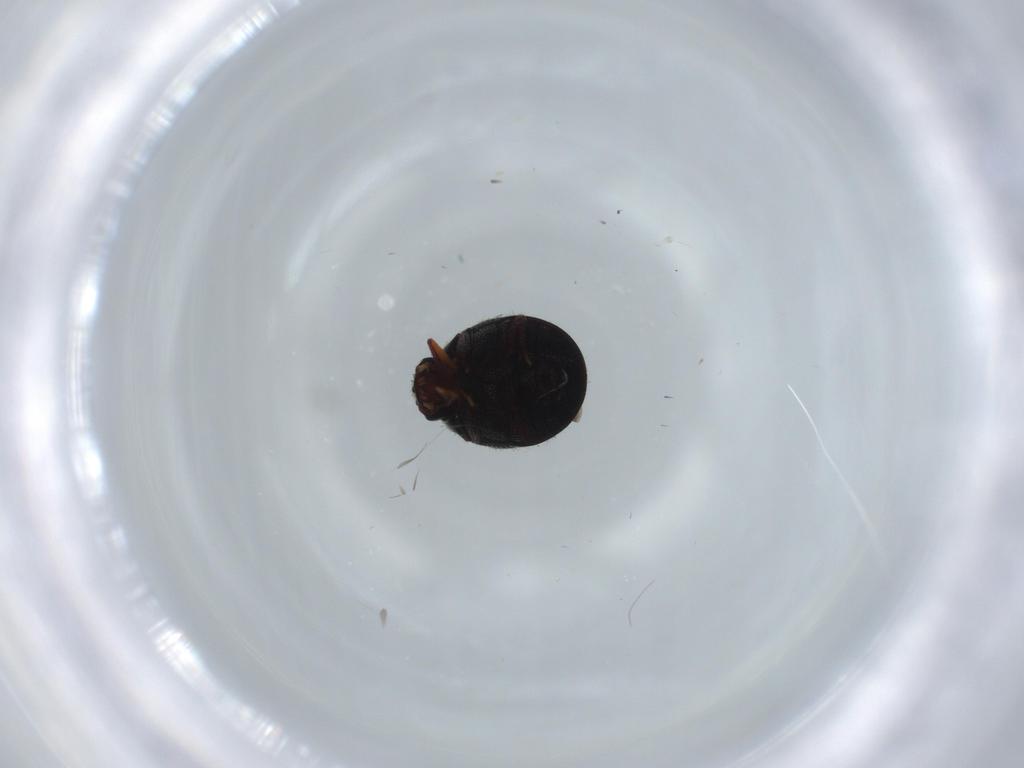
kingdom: Animalia
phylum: Arthropoda
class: Insecta
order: Coleoptera
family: Ptinidae
